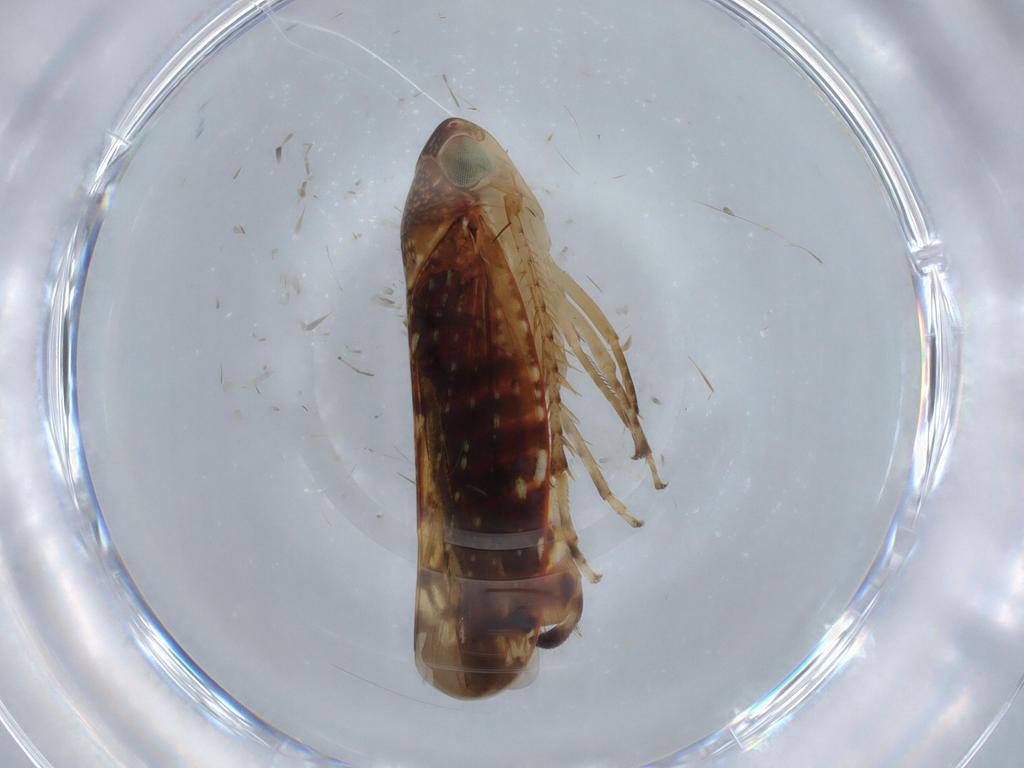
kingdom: Animalia
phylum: Arthropoda
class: Insecta
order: Hemiptera
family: Cicadellidae
